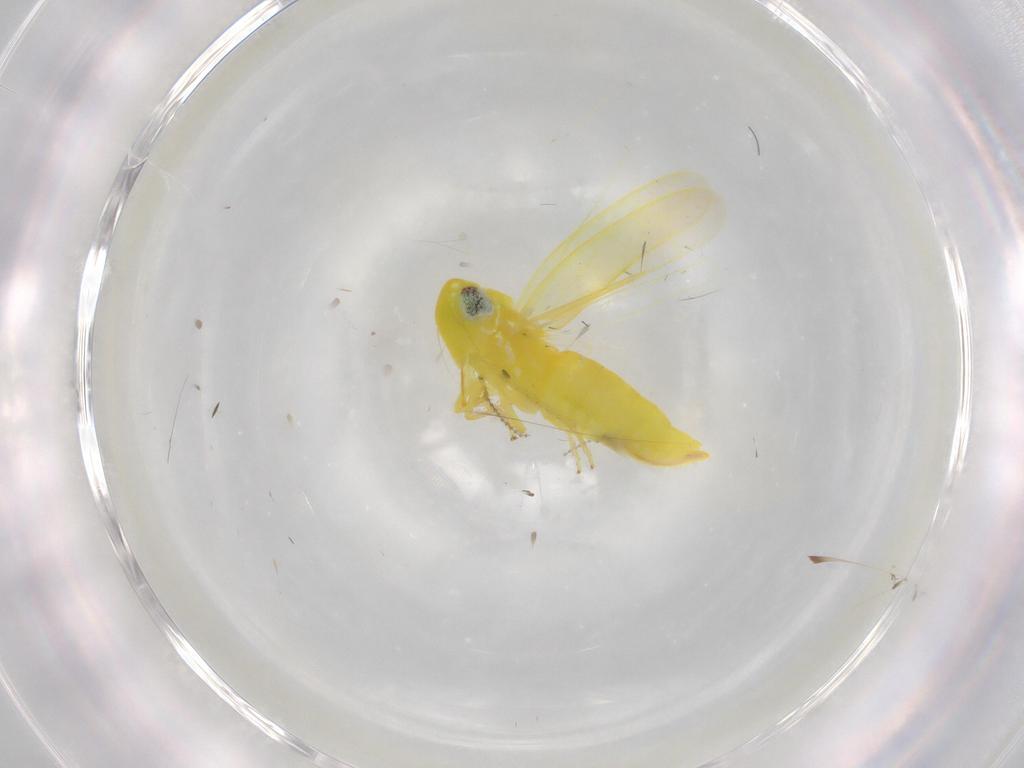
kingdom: Animalia
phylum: Arthropoda
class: Insecta
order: Hemiptera
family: Cicadellidae
